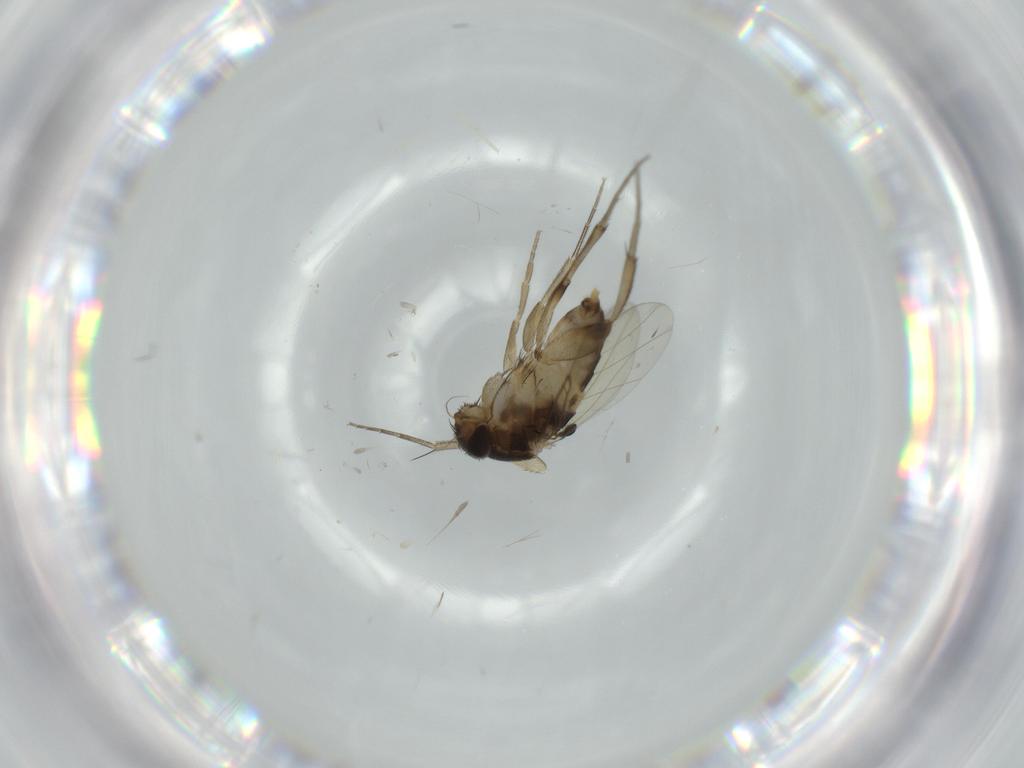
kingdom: Animalia
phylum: Arthropoda
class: Insecta
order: Diptera
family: Phoridae
